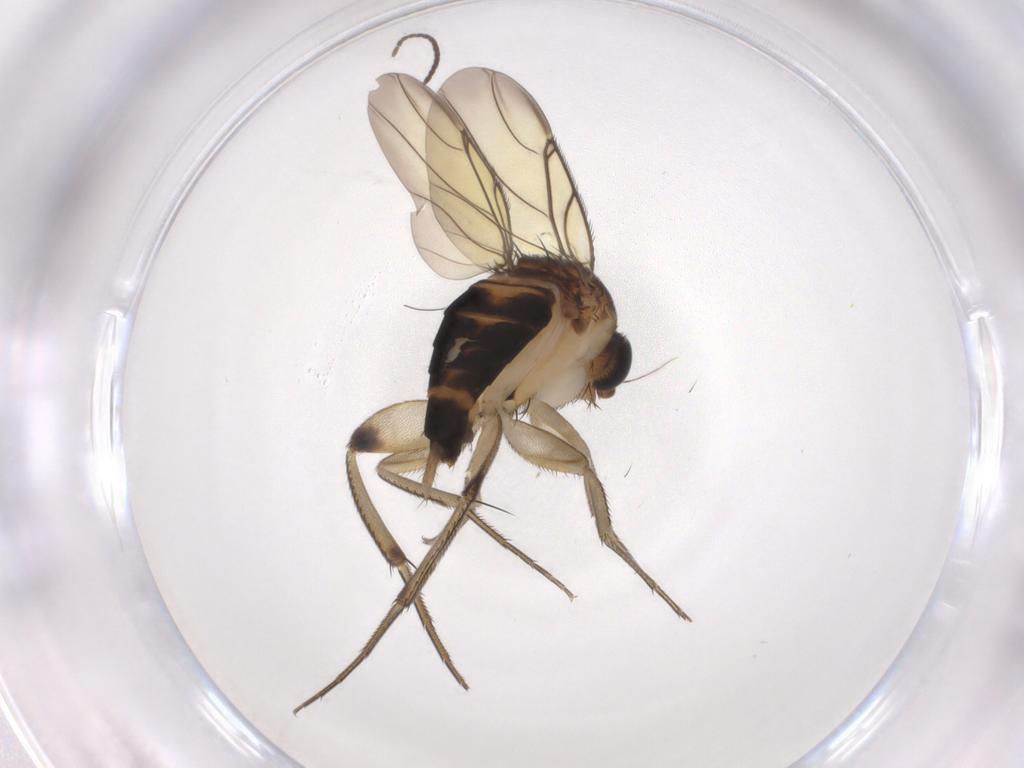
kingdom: Animalia
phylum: Arthropoda
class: Insecta
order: Diptera
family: Phoridae
